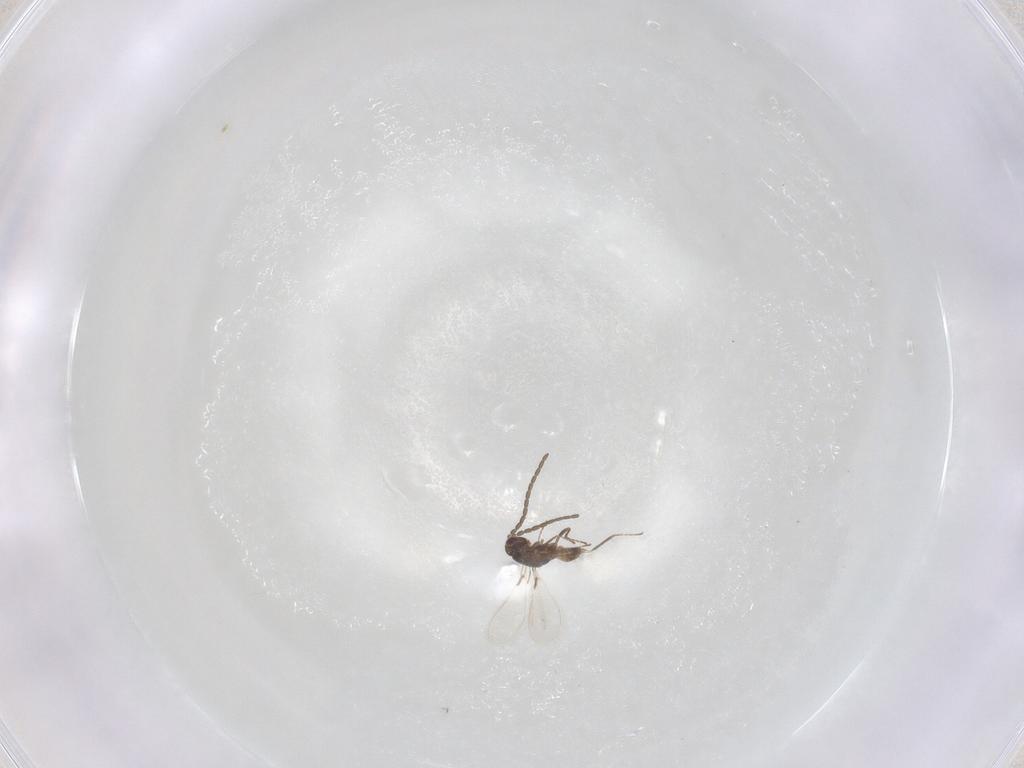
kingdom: Animalia
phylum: Arthropoda
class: Insecta
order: Hymenoptera
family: Mymaridae
